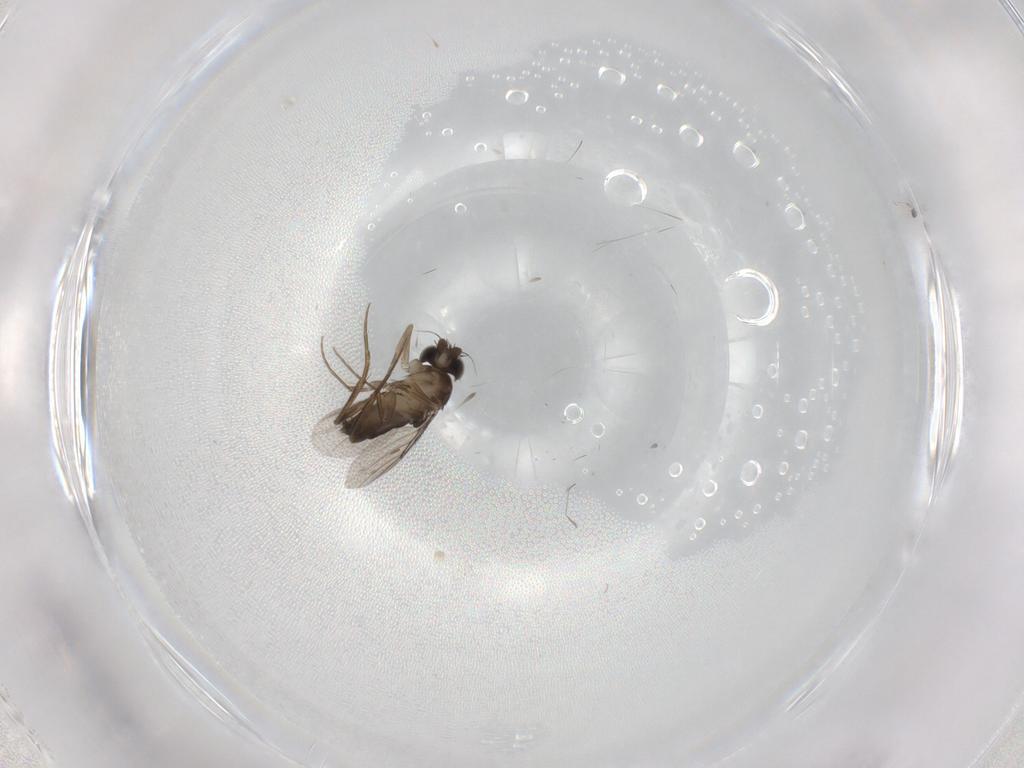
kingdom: Animalia
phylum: Arthropoda
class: Insecta
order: Diptera
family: Phoridae
